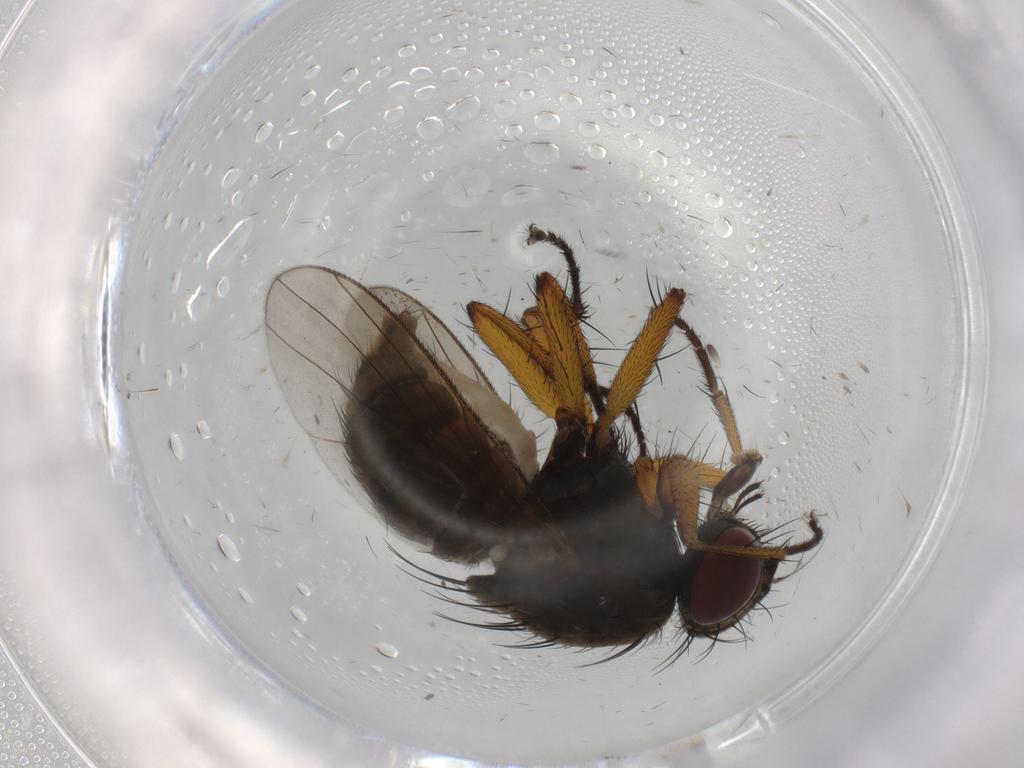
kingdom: Animalia
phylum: Arthropoda
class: Insecta
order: Diptera
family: Muscidae
